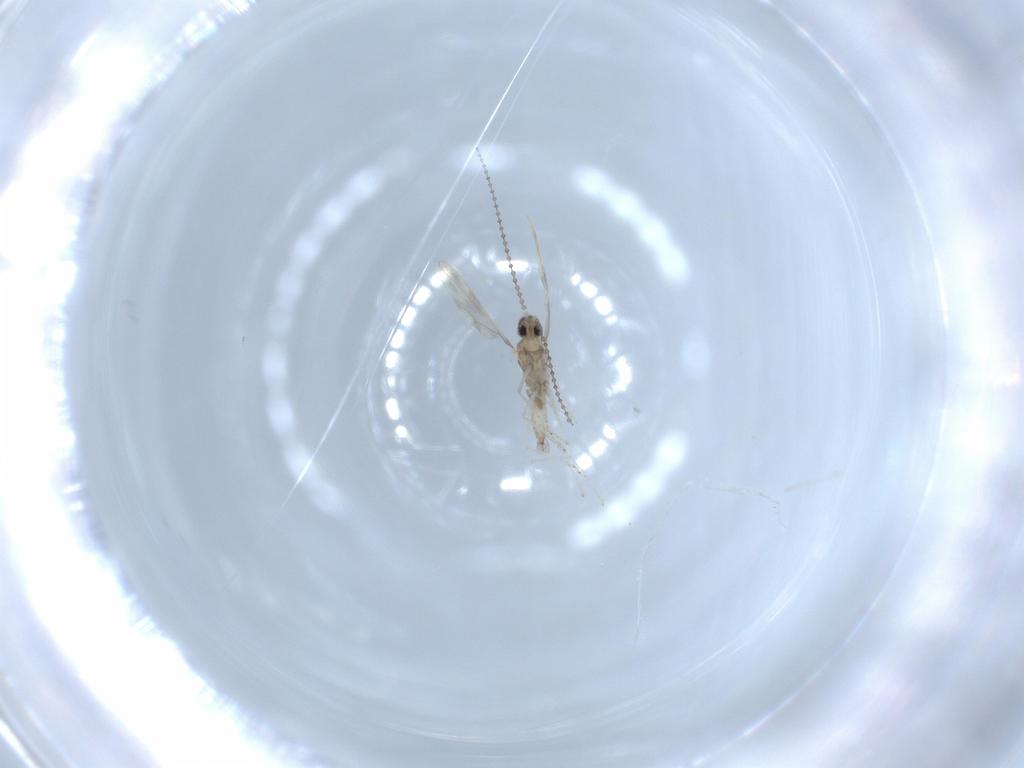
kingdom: Animalia
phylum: Arthropoda
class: Insecta
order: Diptera
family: Cecidomyiidae
